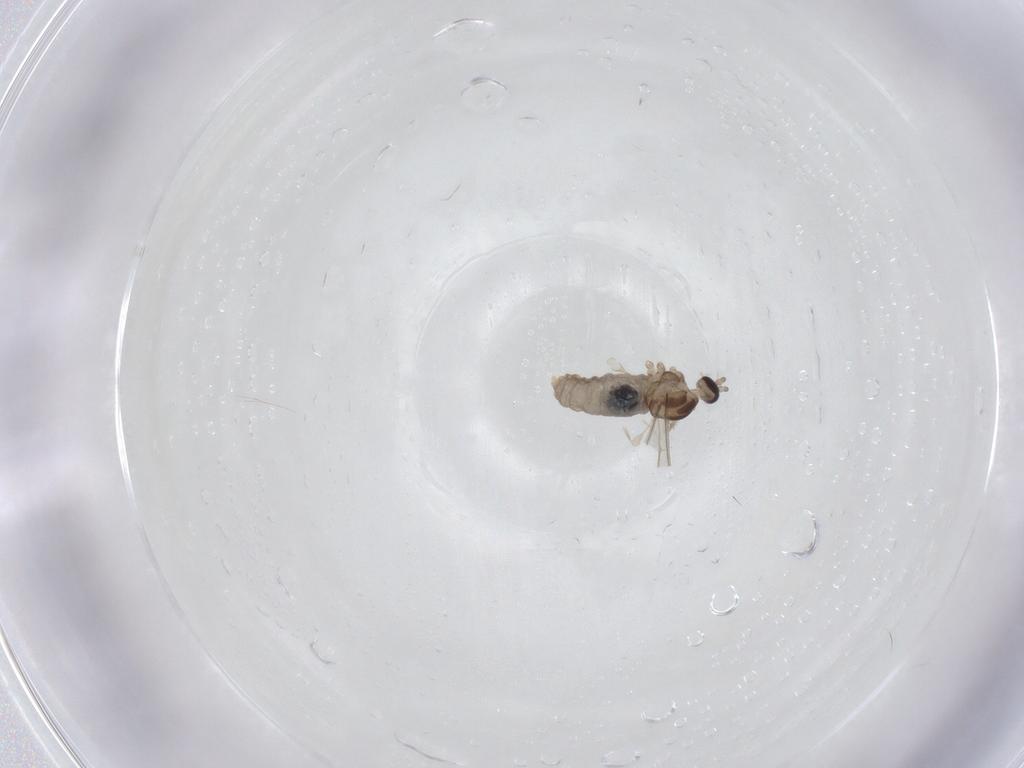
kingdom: Animalia
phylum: Arthropoda
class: Insecta
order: Diptera
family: Cecidomyiidae
